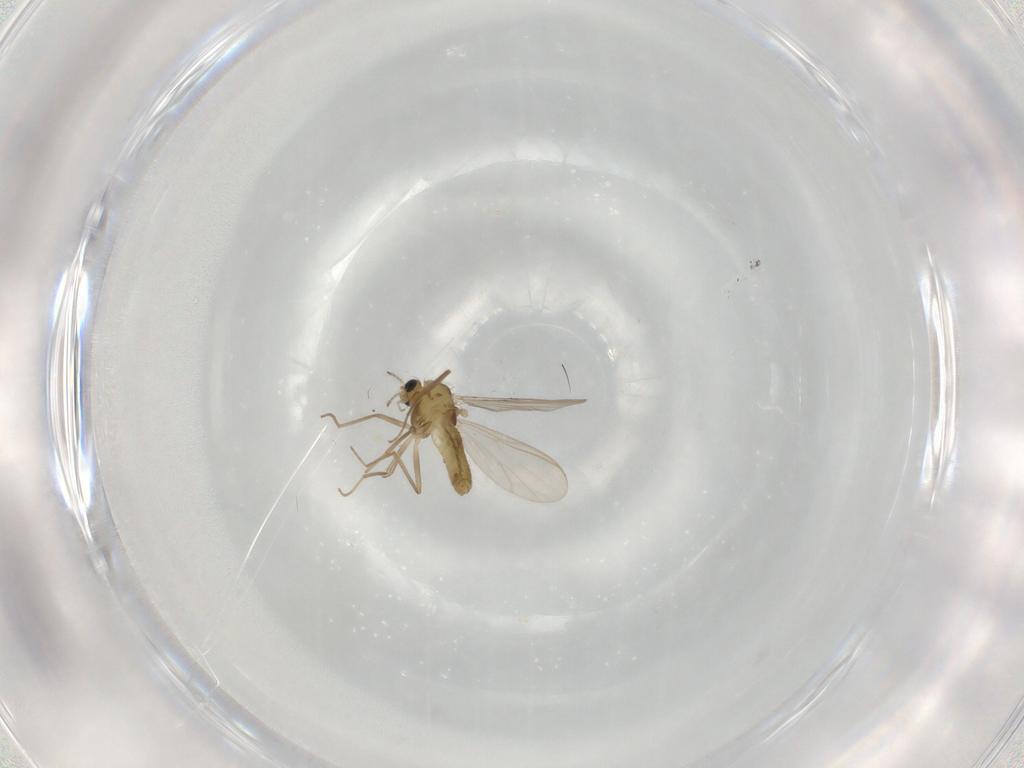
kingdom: Animalia
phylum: Arthropoda
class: Insecta
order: Diptera
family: Chironomidae
